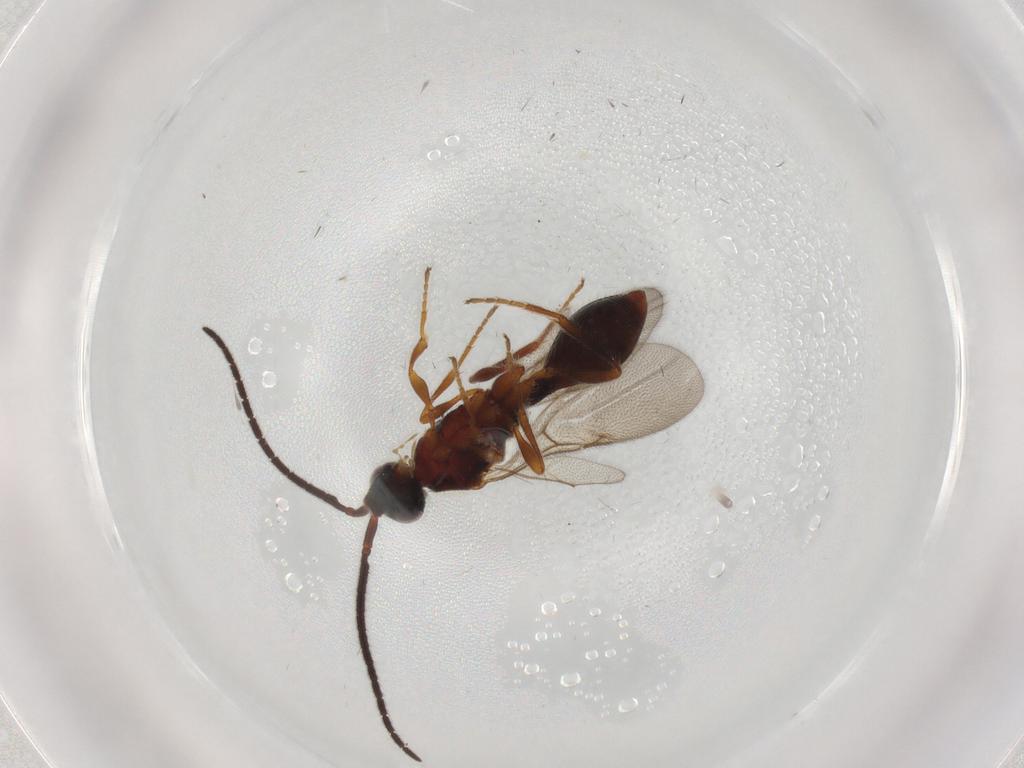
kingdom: Animalia
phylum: Arthropoda
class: Insecta
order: Hymenoptera
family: Diapriidae
